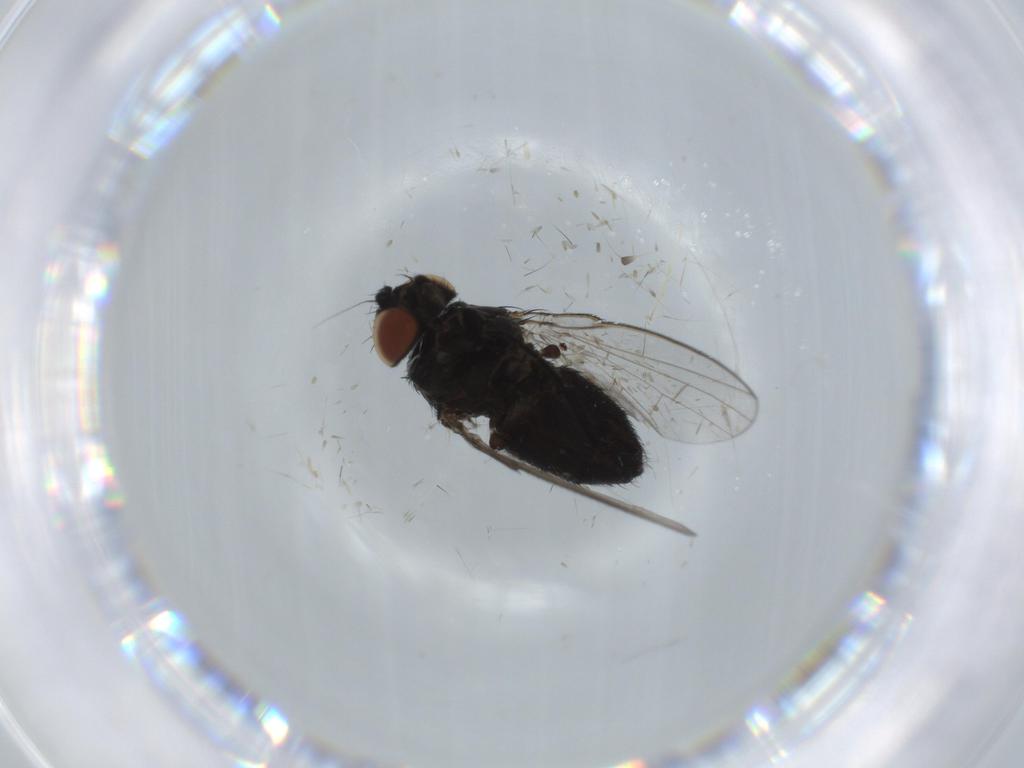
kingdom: Animalia
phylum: Arthropoda
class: Insecta
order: Diptera
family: Milichiidae
